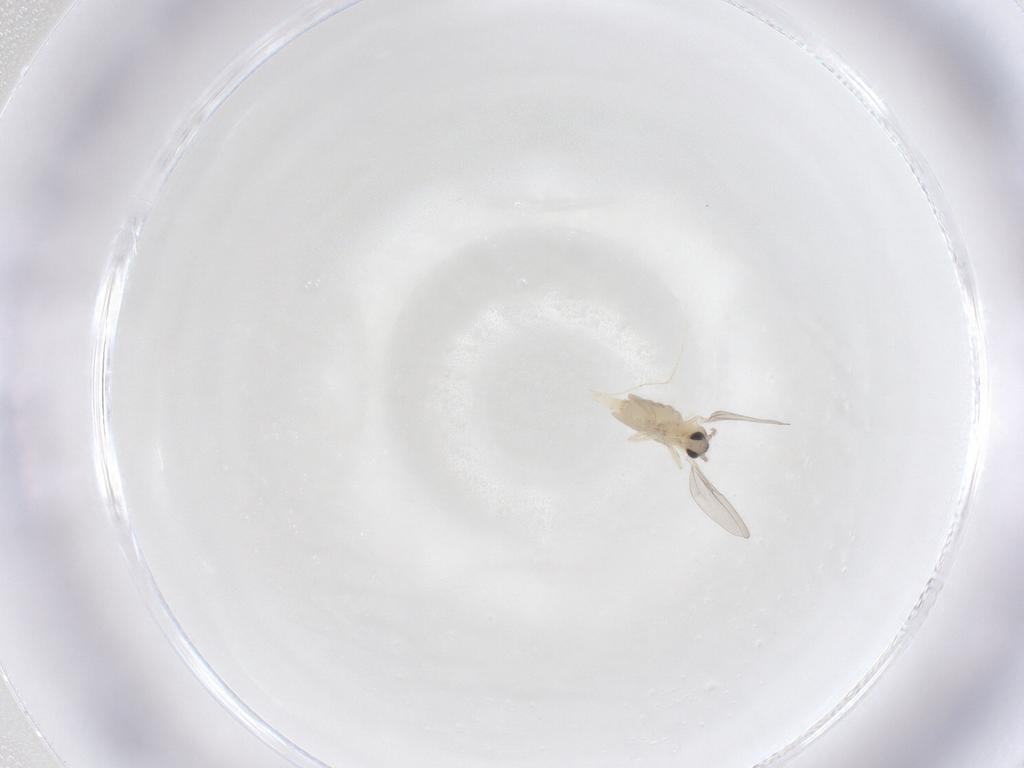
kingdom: Animalia
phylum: Arthropoda
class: Insecta
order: Diptera
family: Cecidomyiidae
